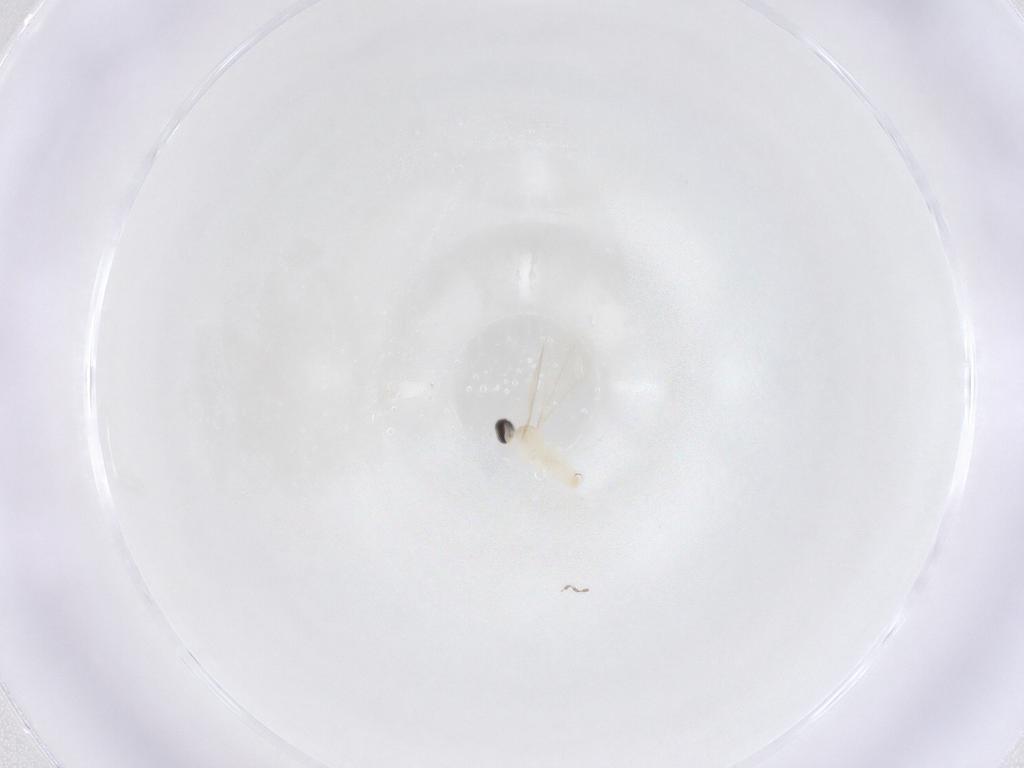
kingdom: Animalia
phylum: Arthropoda
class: Insecta
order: Diptera
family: Cecidomyiidae
